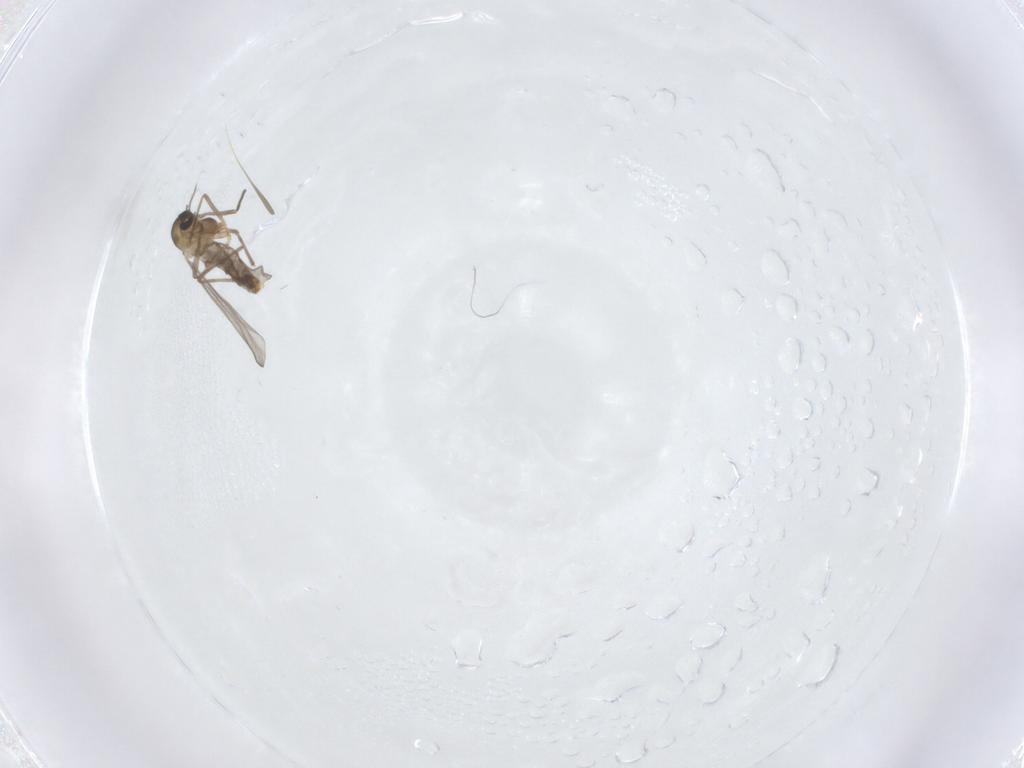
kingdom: Animalia
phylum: Arthropoda
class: Insecta
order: Diptera
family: Chironomidae
